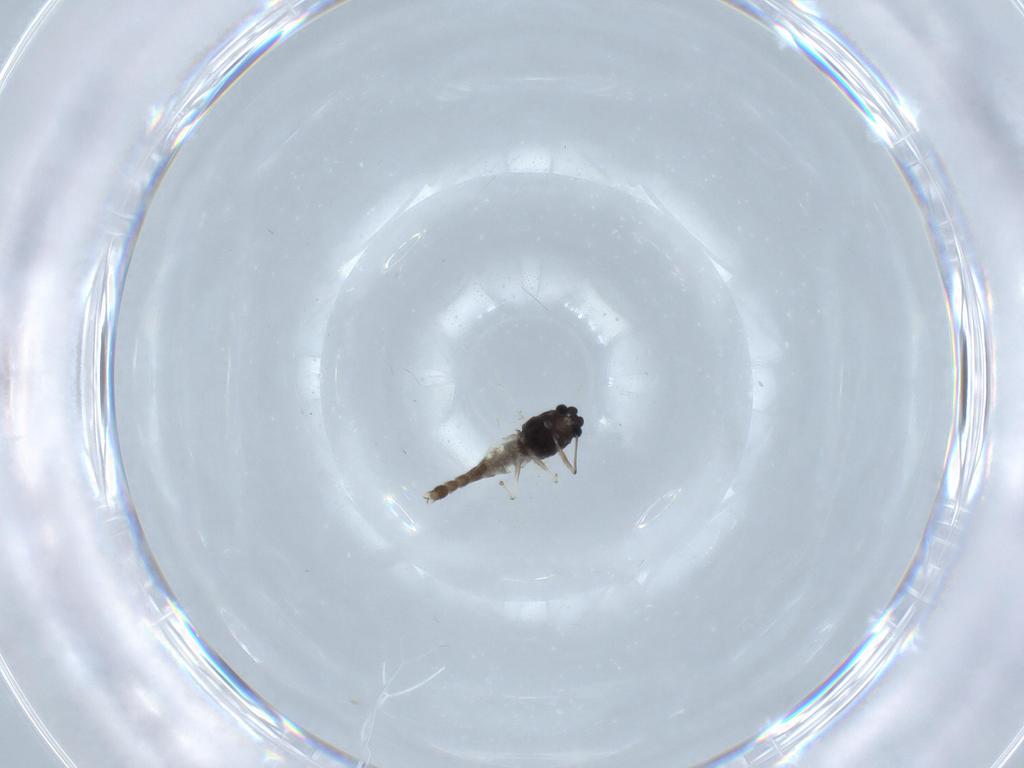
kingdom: Animalia
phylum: Arthropoda
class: Insecta
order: Diptera
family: Chironomidae
